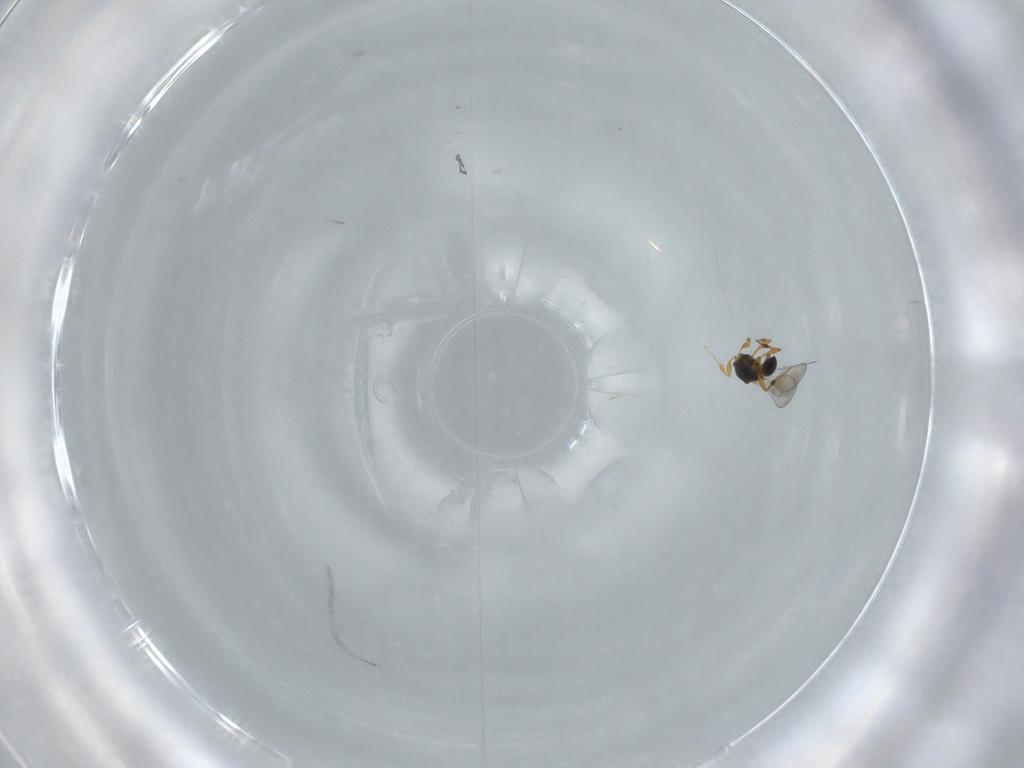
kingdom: Animalia
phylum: Arthropoda
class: Insecta
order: Hymenoptera
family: Platygastridae
